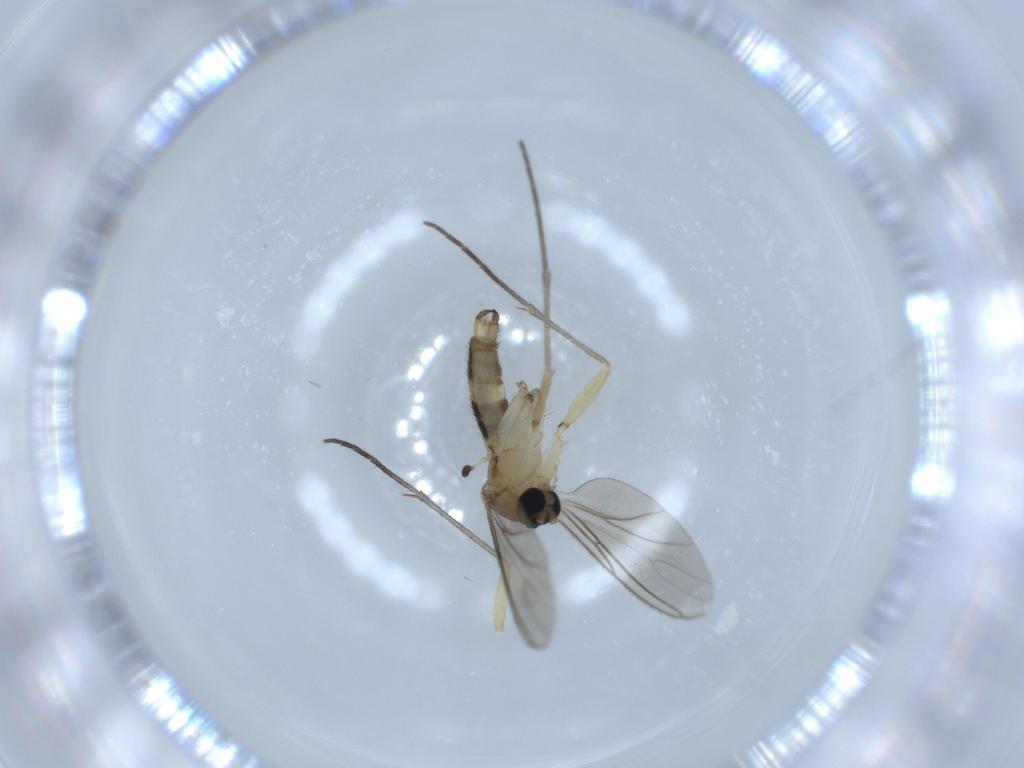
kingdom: Animalia
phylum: Arthropoda
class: Insecta
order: Diptera
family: Sciaridae
